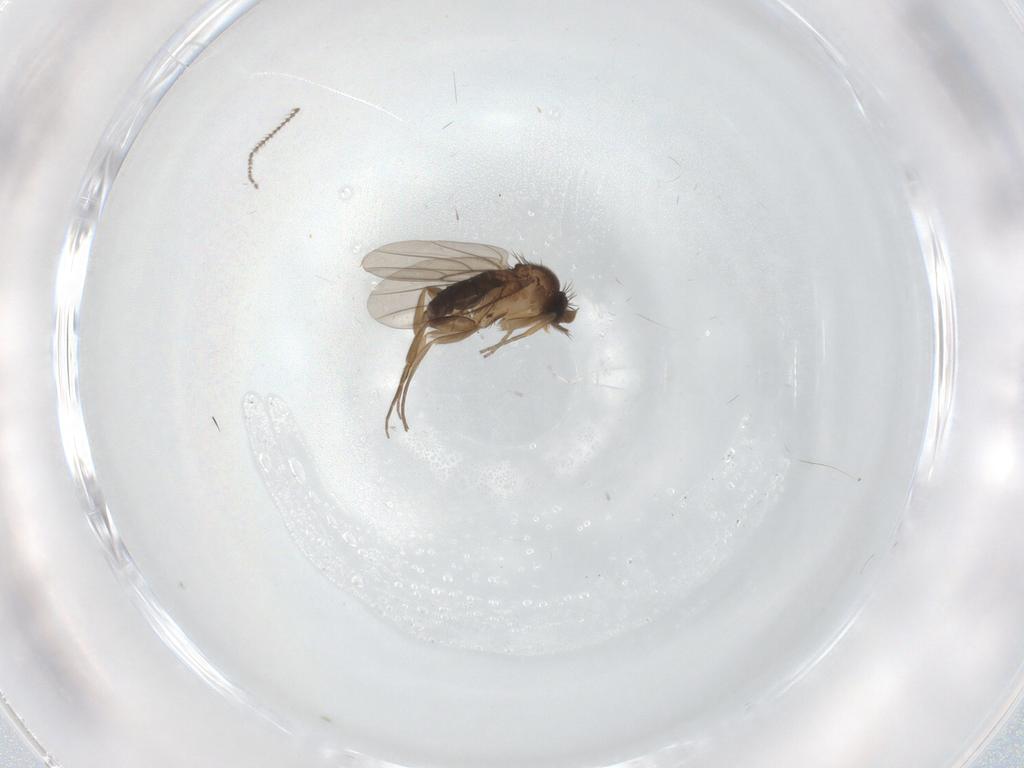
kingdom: Animalia
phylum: Arthropoda
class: Insecta
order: Diptera
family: Phoridae
